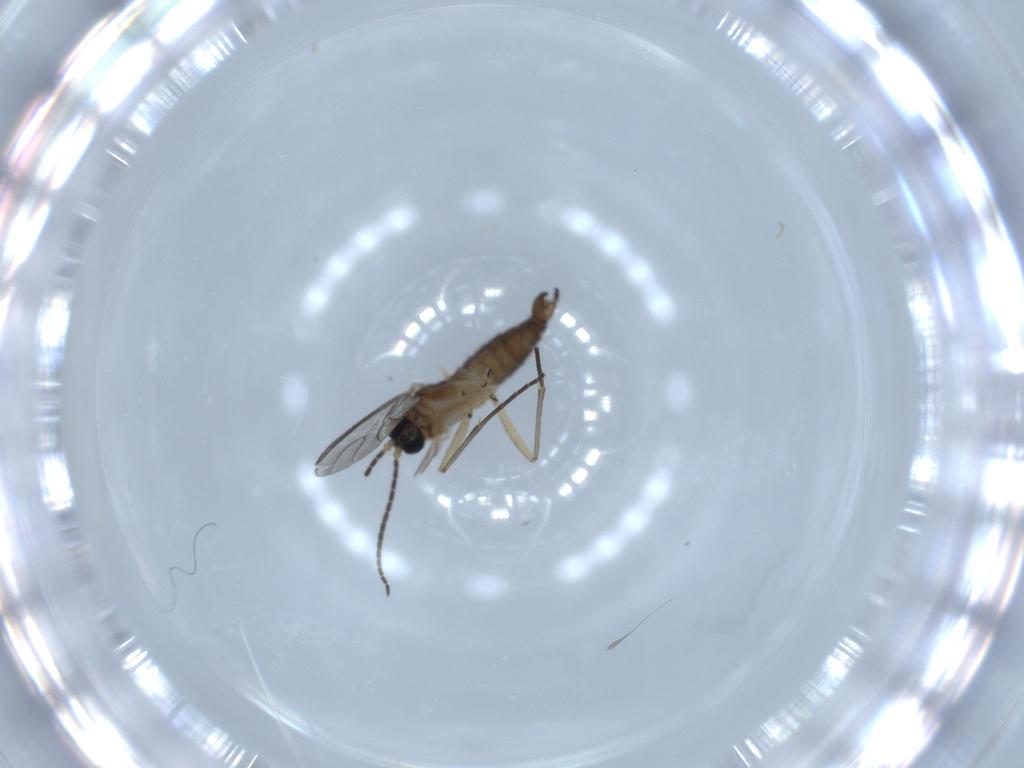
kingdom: Animalia
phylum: Arthropoda
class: Insecta
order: Diptera
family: Sciaridae
